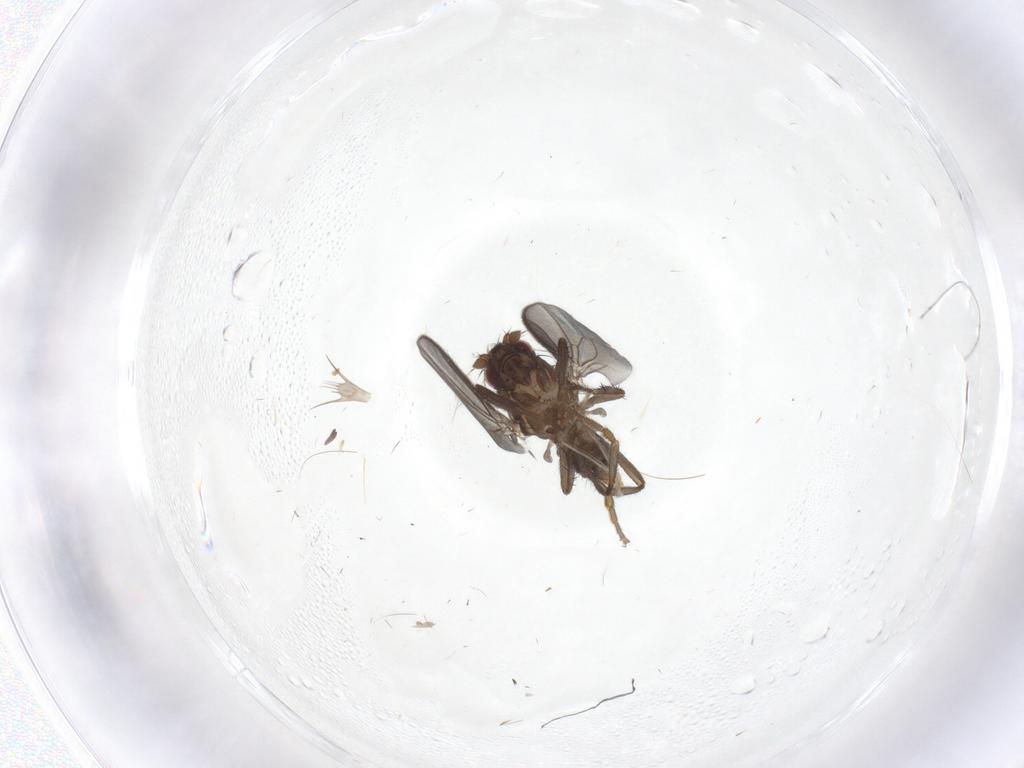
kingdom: Animalia
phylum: Arthropoda
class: Insecta
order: Diptera
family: Sphaeroceridae
